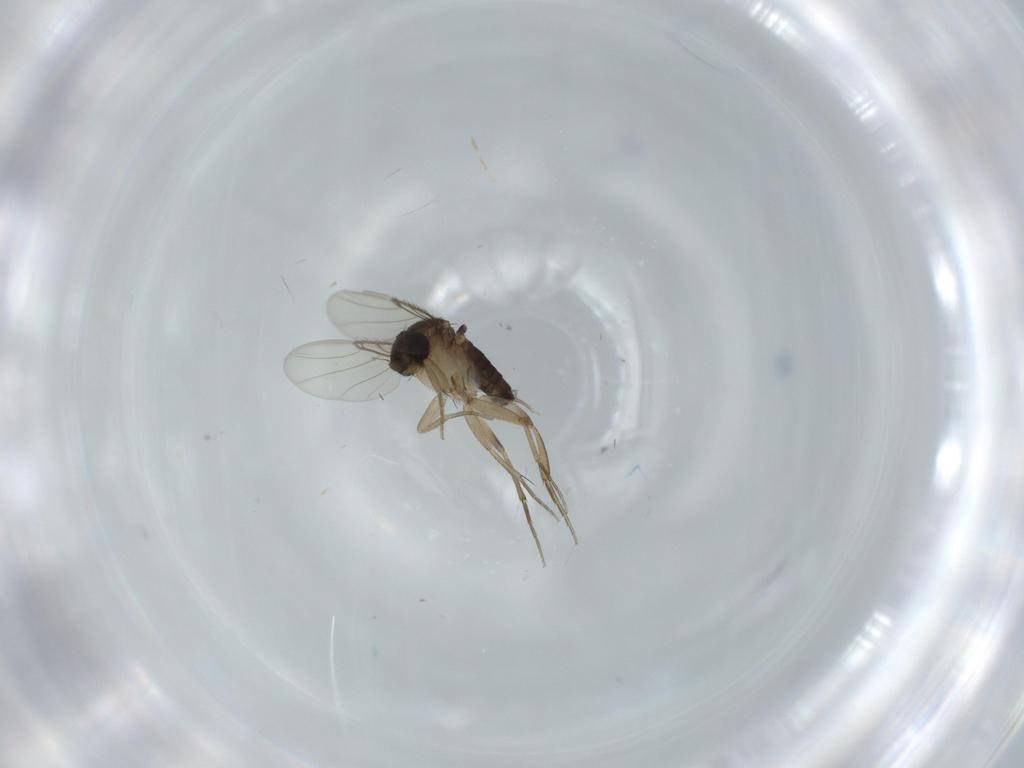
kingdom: Animalia
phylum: Arthropoda
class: Insecta
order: Diptera
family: Phoridae
